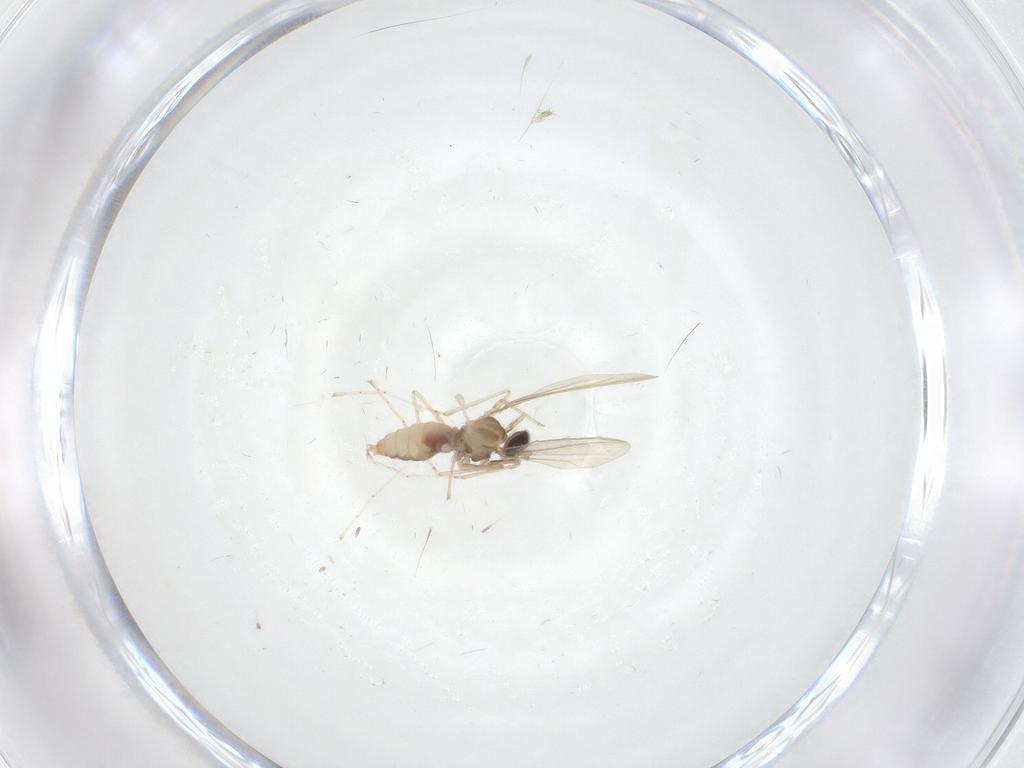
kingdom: Animalia
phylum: Arthropoda
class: Insecta
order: Diptera
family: Cecidomyiidae
